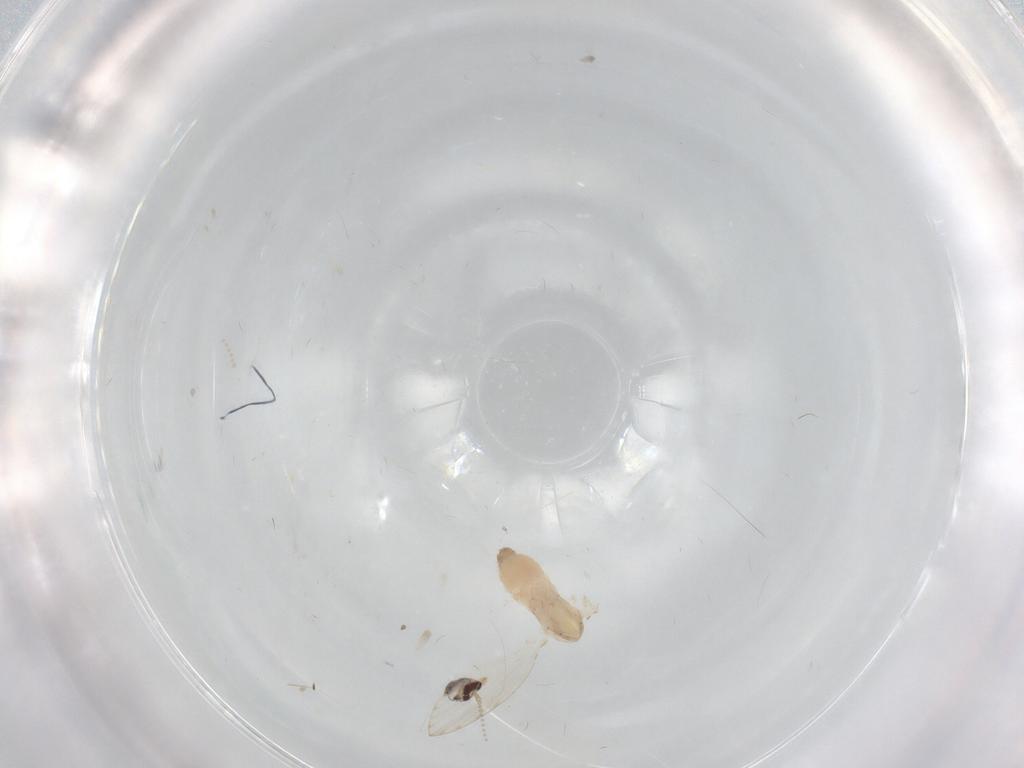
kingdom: Animalia
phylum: Arthropoda
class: Insecta
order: Diptera
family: Psychodidae
